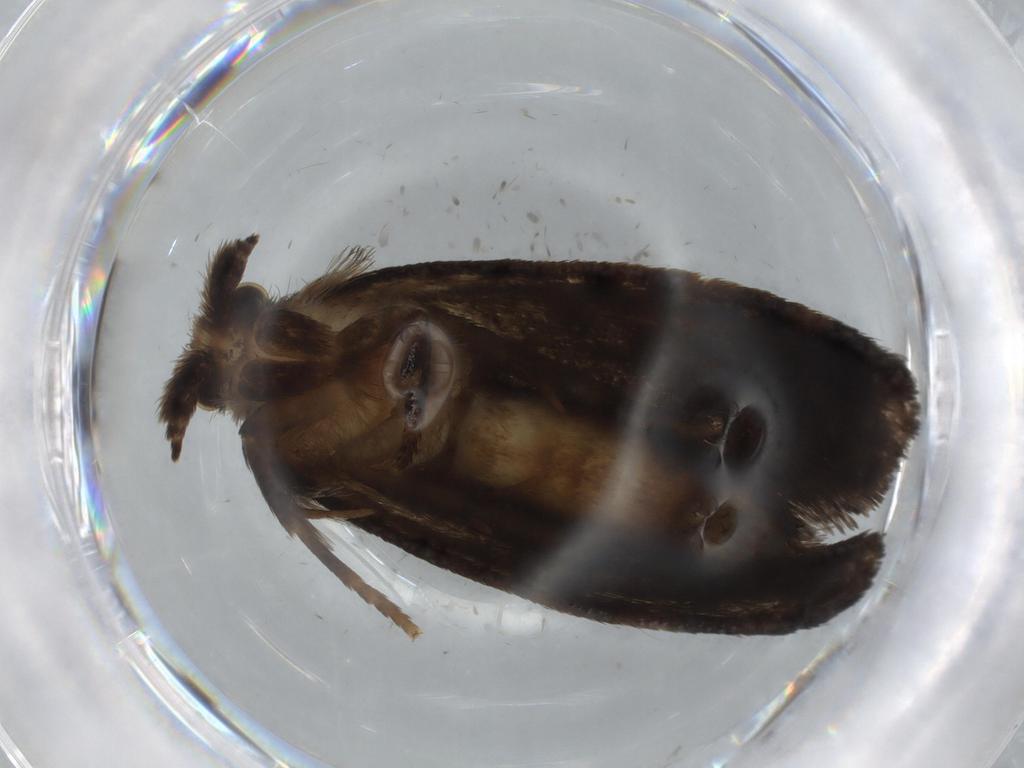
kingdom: Animalia
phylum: Arthropoda
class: Insecta
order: Lepidoptera
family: Tineidae
